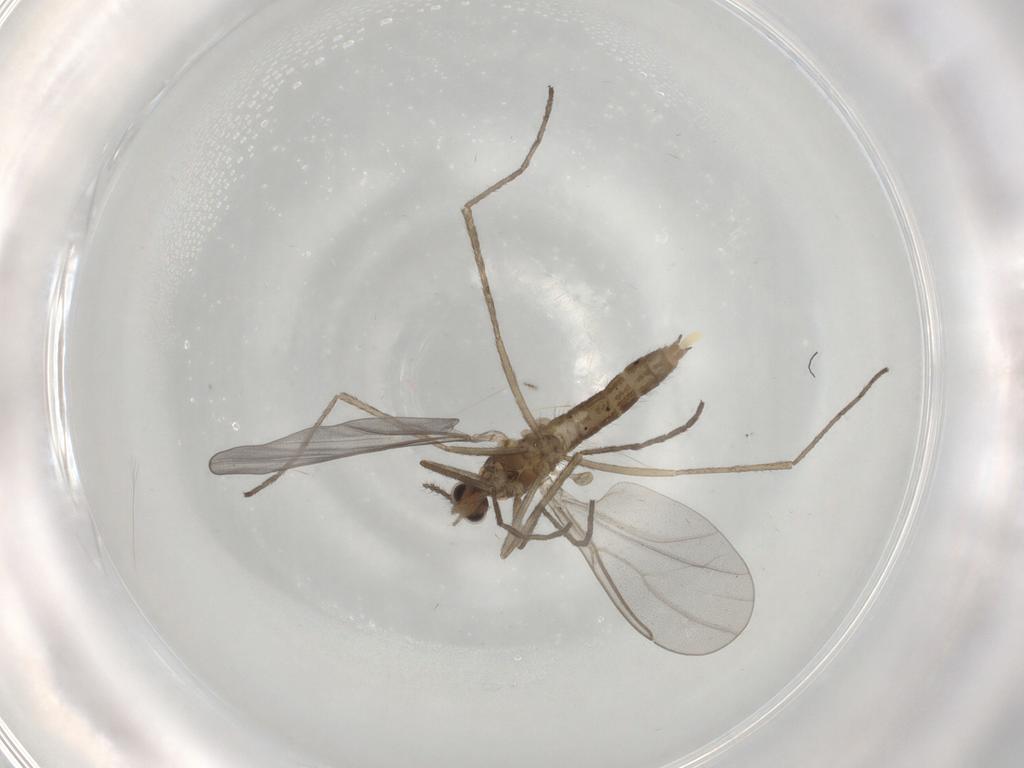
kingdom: Animalia
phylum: Arthropoda
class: Insecta
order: Diptera
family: Cecidomyiidae
